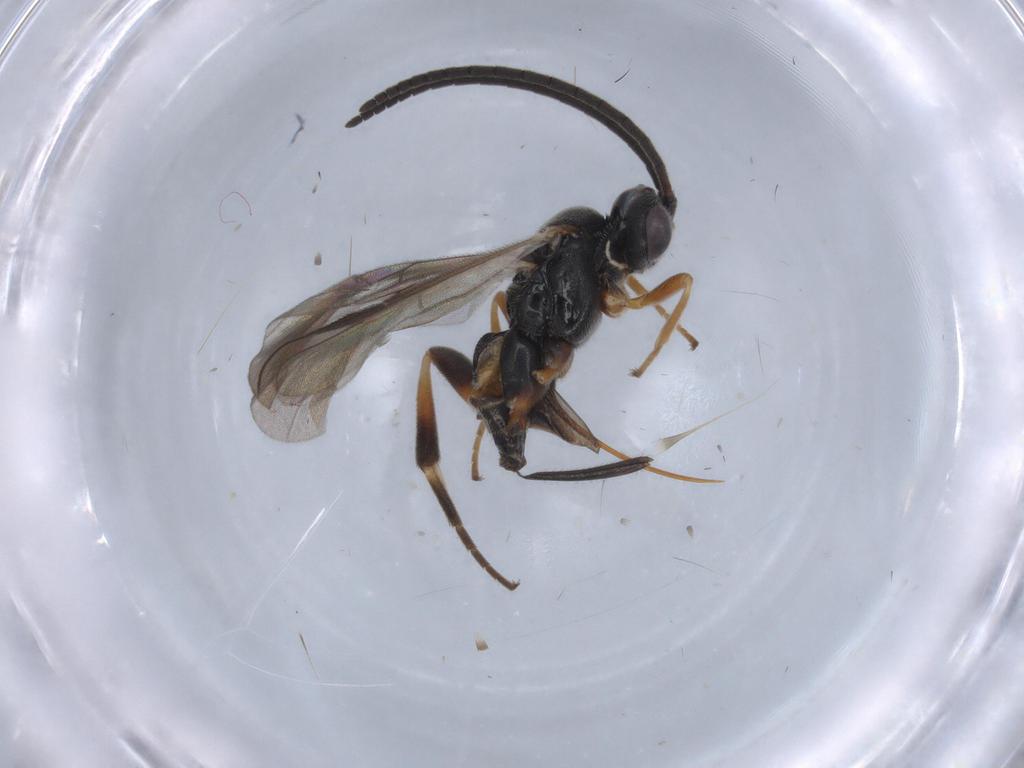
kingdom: Animalia
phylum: Arthropoda
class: Insecta
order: Hymenoptera
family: Braconidae
